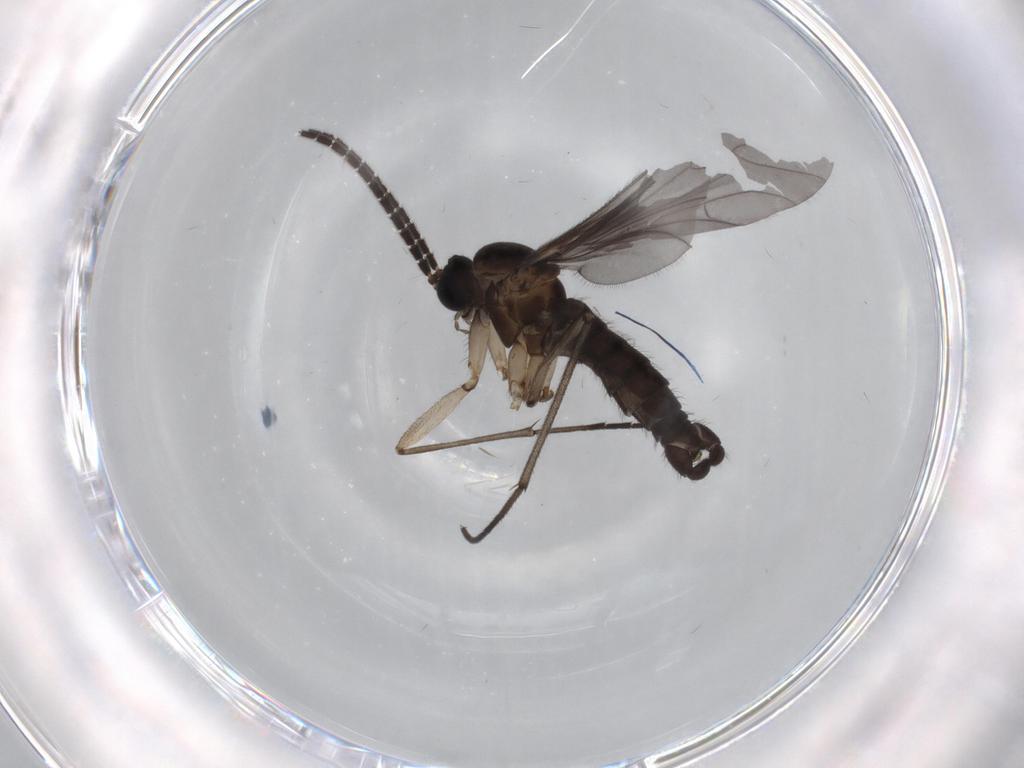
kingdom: Animalia
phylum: Arthropoda
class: Insecta
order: Diptera
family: Sciaridae
